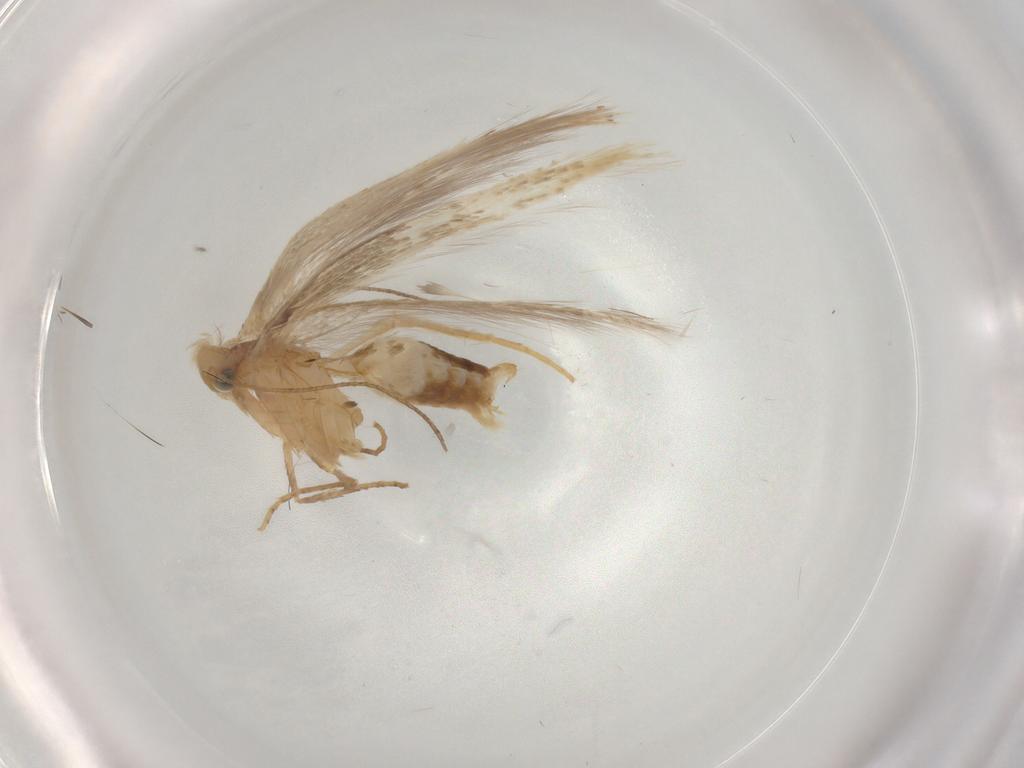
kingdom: Animalia
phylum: Arthropoda
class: Insecta
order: Lepidoptera
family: Tischeriidae
